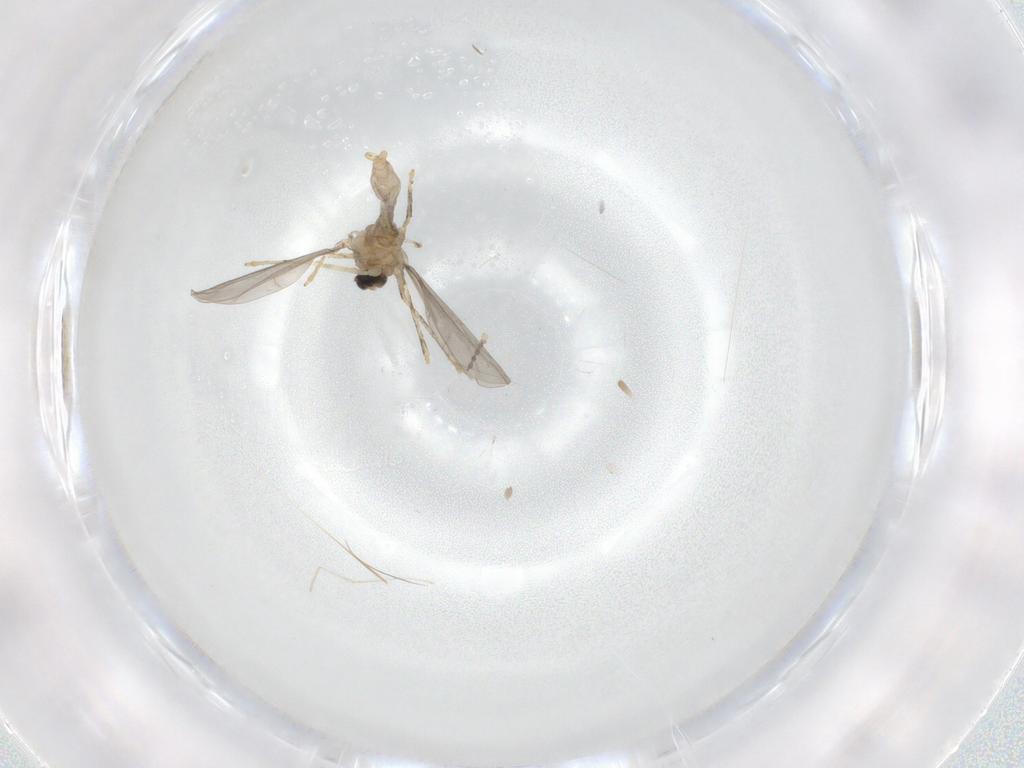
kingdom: Animalia
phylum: Arthropoda
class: Insecta
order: Diptera
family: Cecidomyiidae
